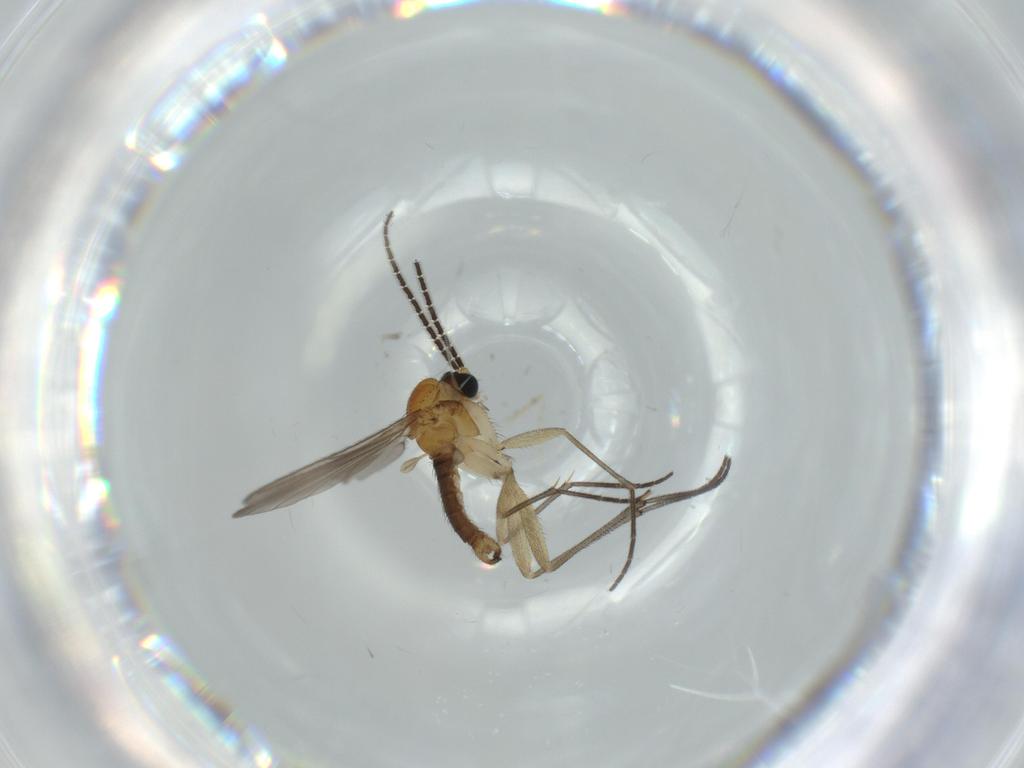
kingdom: Animalia
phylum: Arthropoda
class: Insecta
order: Diptera
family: Sciaridae
